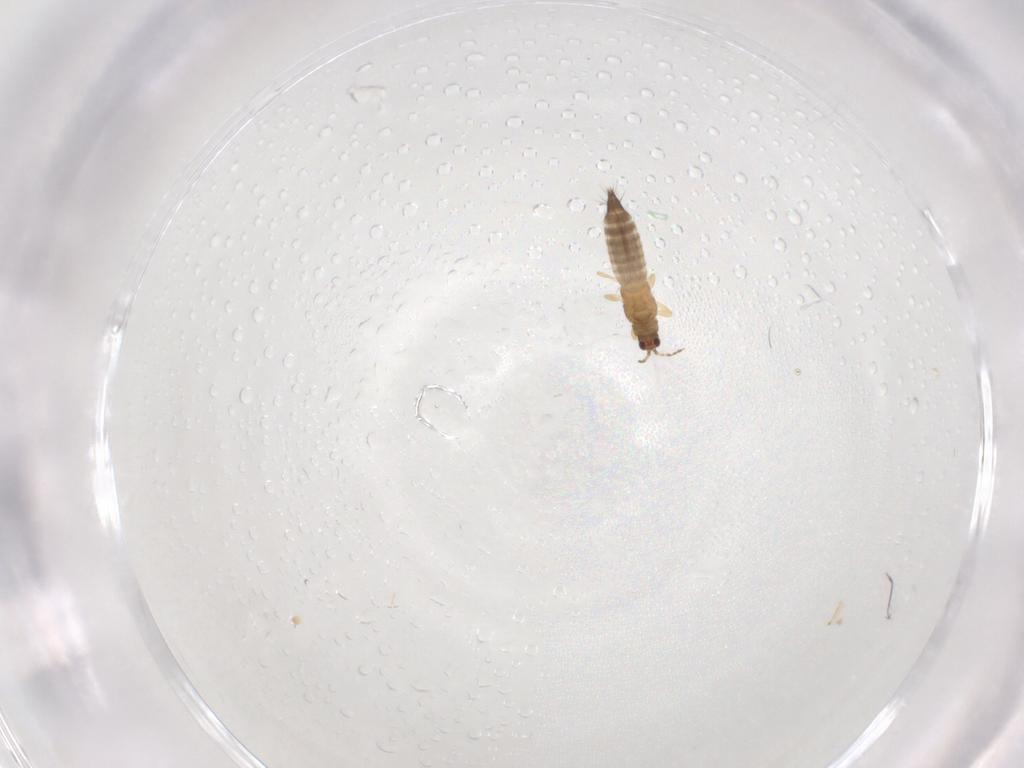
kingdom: Animalia
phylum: Arthropoda
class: Insecta
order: Thysanoptera
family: Thripidae
